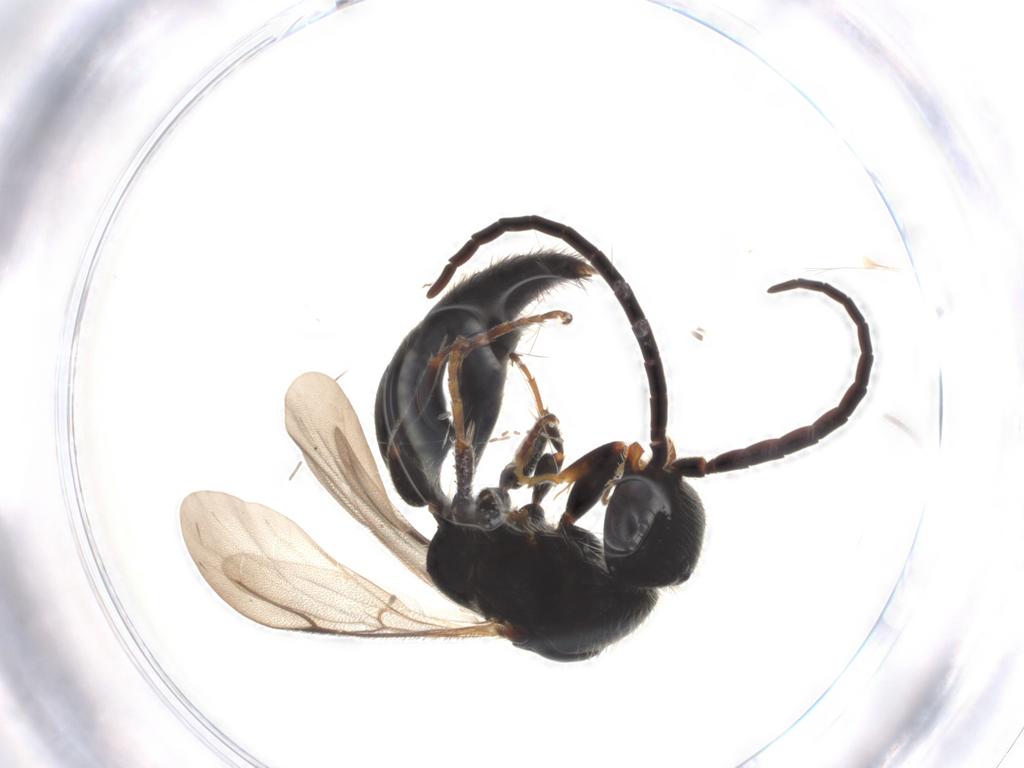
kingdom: Animalia
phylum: Arthropoda
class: Insecta
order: Hymenoptera
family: Bethylidae
